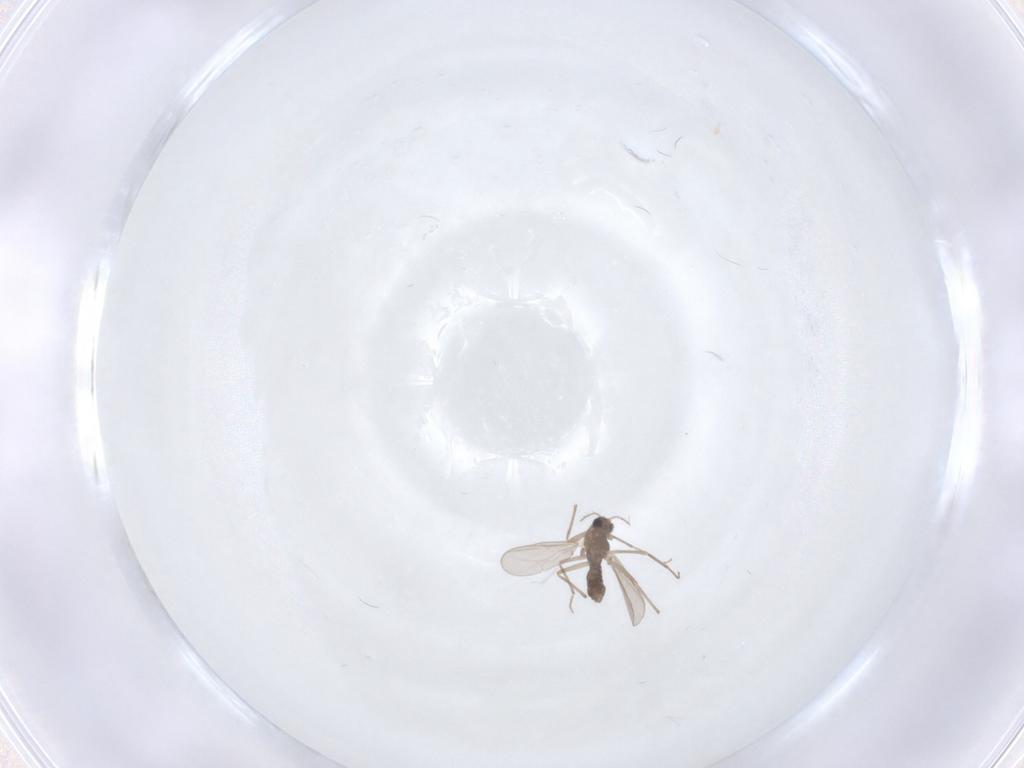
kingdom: Animalia
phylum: Arthropoda
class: Insecta
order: Diptera
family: Chironomidae
